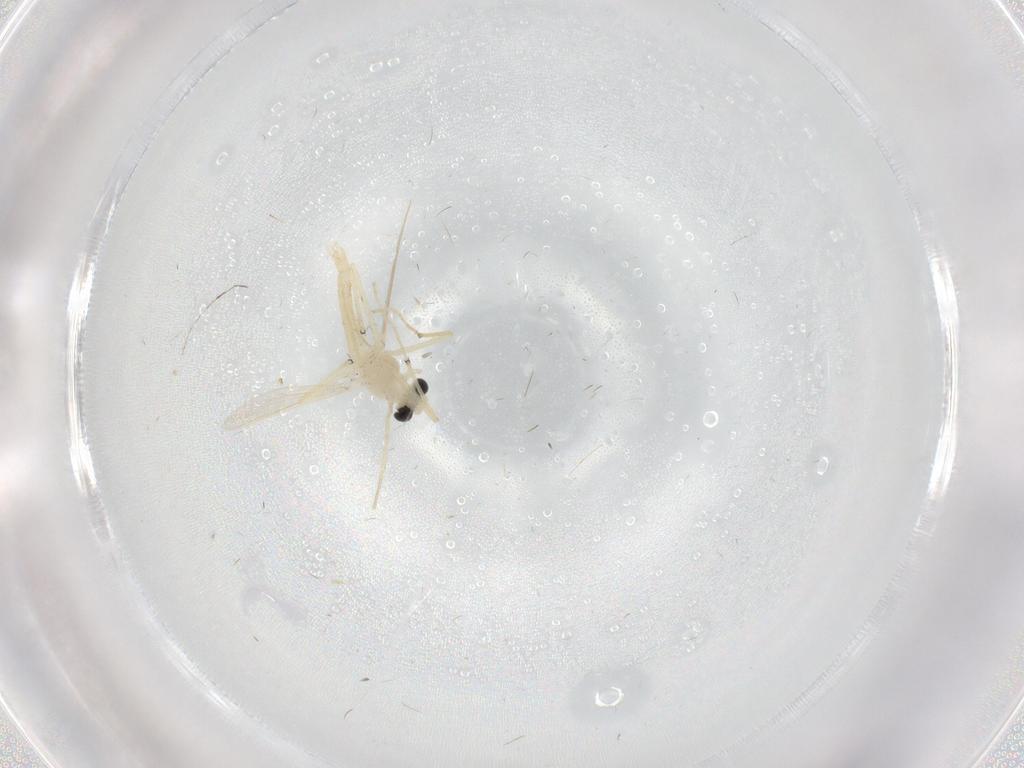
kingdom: Animalia
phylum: Arthropoda
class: Insecta
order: Diptera
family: Chironomidae
